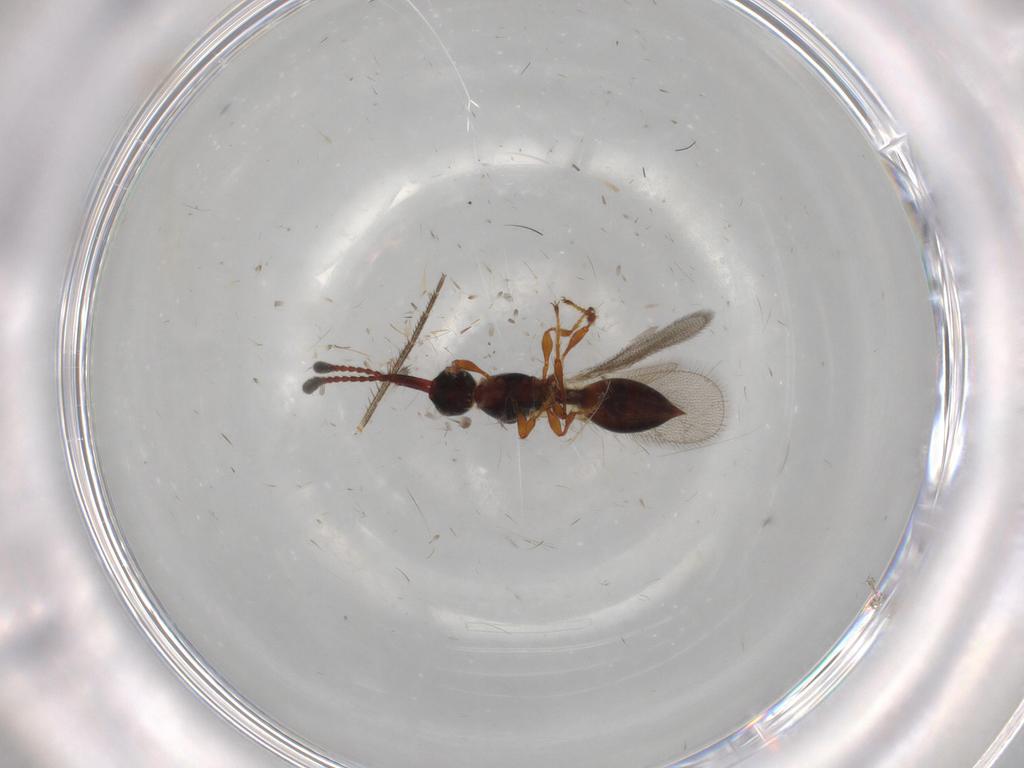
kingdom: Animalia
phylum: Arthropoda
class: Insecta
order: Hymenoptera
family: Diapriidae
